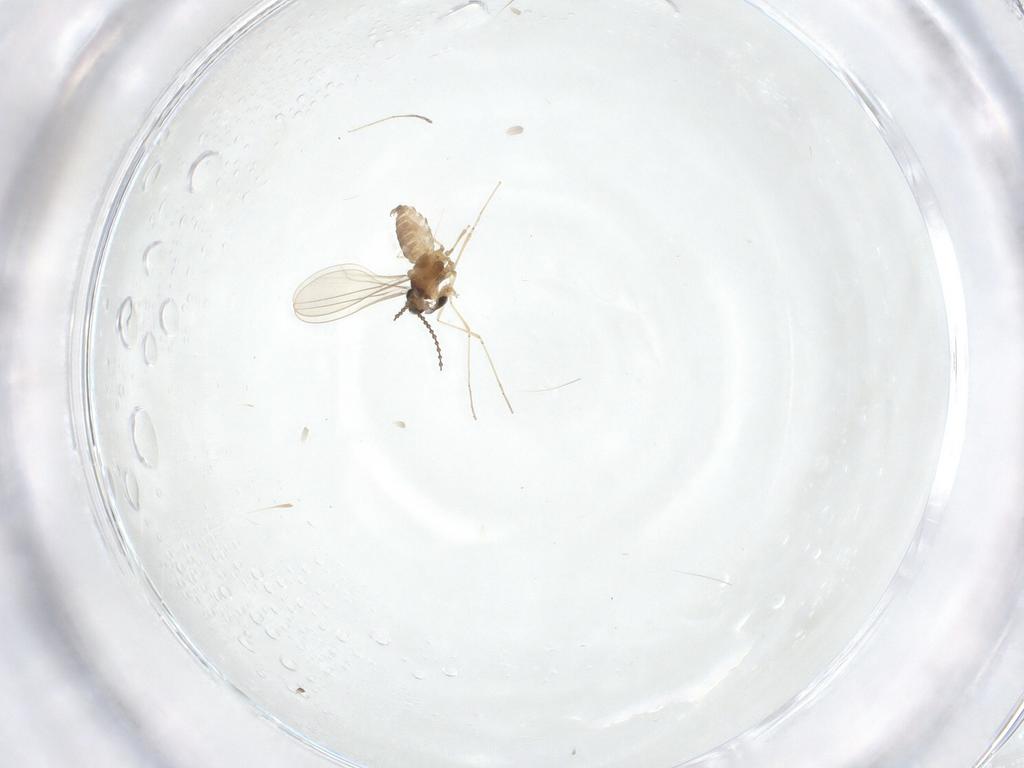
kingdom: Animalia
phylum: Arthropoda
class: Insecta
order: Diptera
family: Cecidomyiidae
